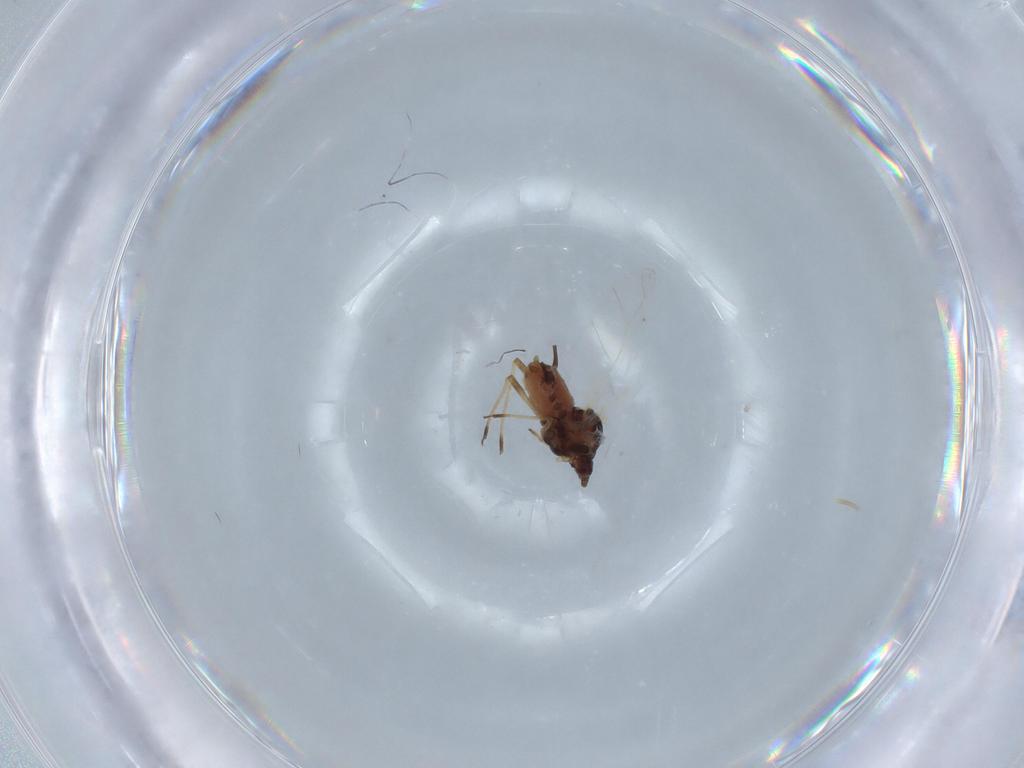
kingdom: Animalia
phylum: Arthropoda
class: Insecta
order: Hemiptera
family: Aphididae
